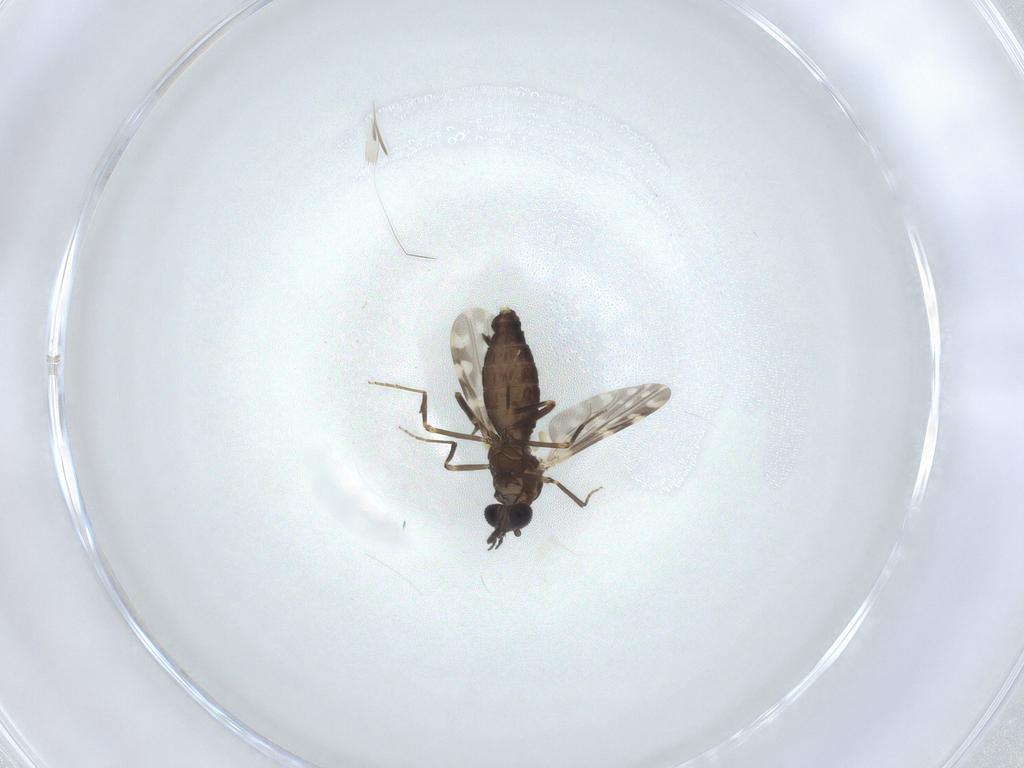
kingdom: Animalia
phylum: Arthropoda
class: Insecta
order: Diptera
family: Ceratopogonidae
